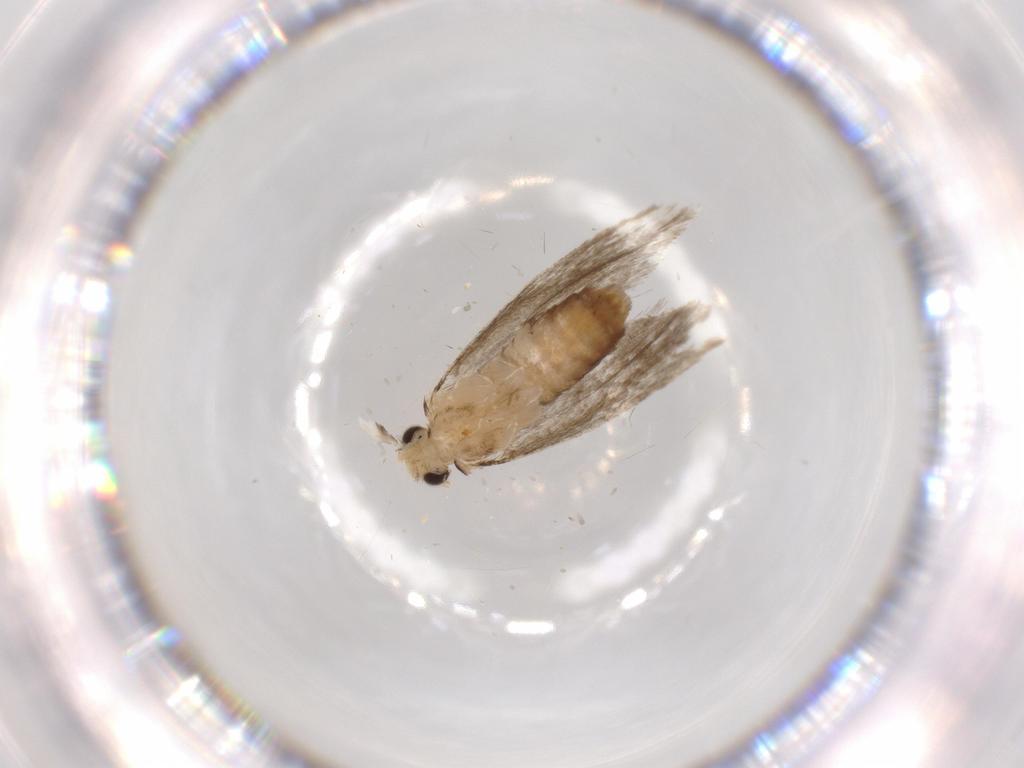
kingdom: Animalia
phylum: Arthropoda
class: Insecta
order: Lepidoptera
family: Tineidae
